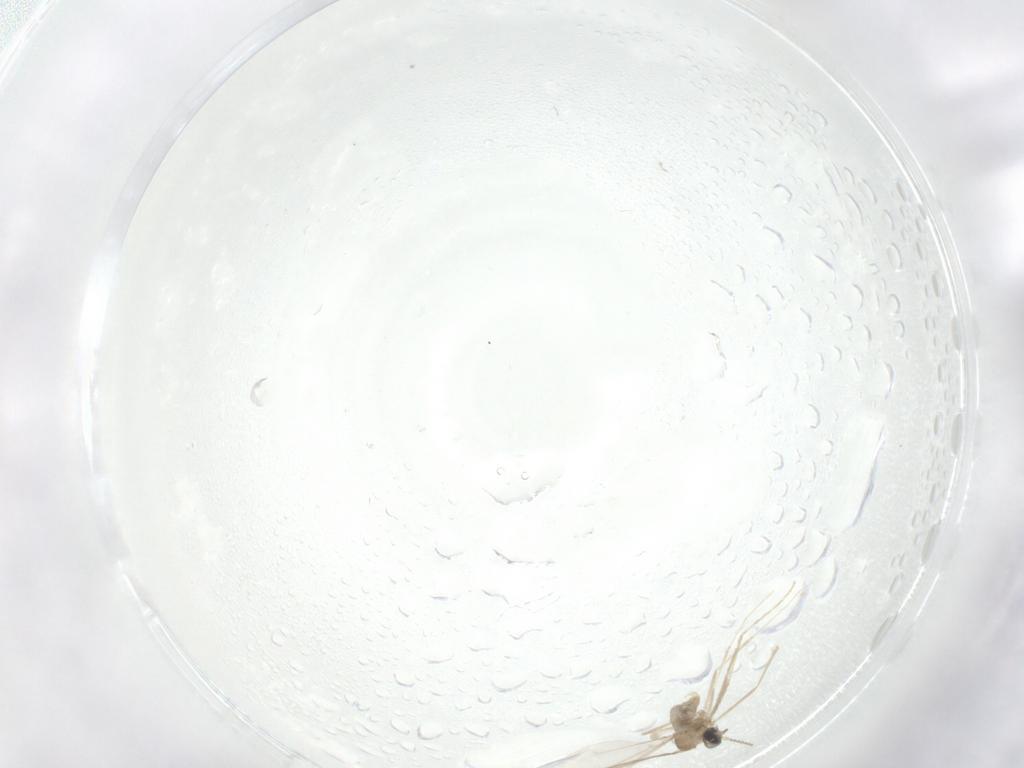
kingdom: Animalia
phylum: Arthropoda
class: Insecta
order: Diptera
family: Cecidomyiidae
